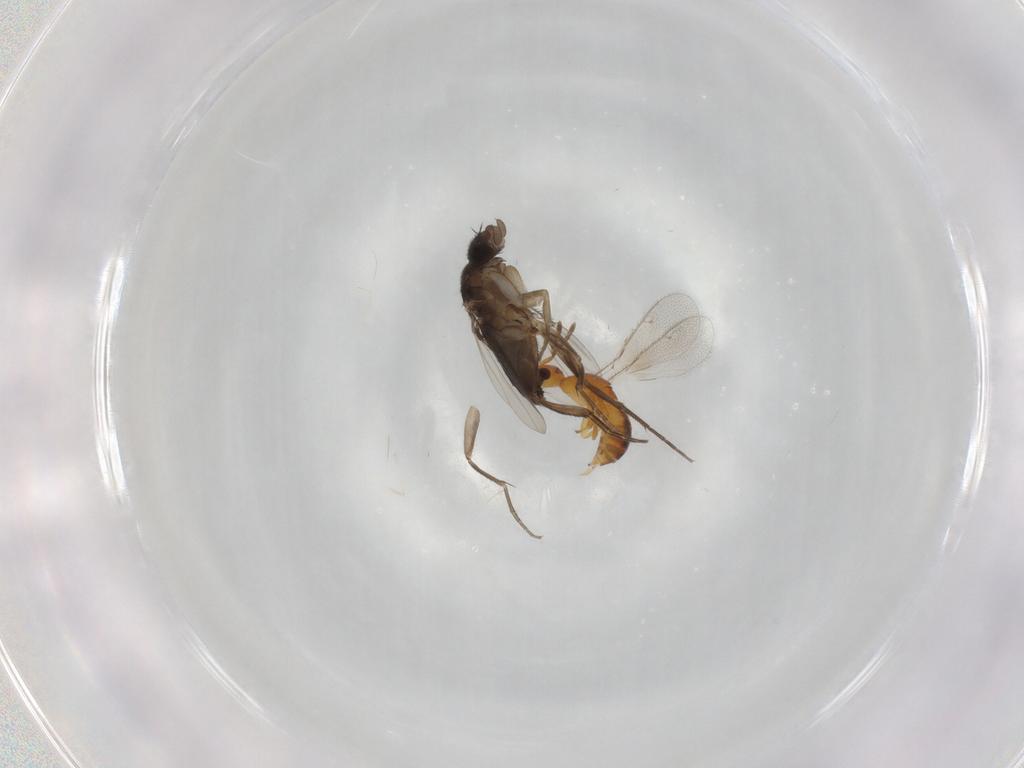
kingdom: Animalia
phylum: Arthropoda
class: Insecta
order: Diptera
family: Phoridae
